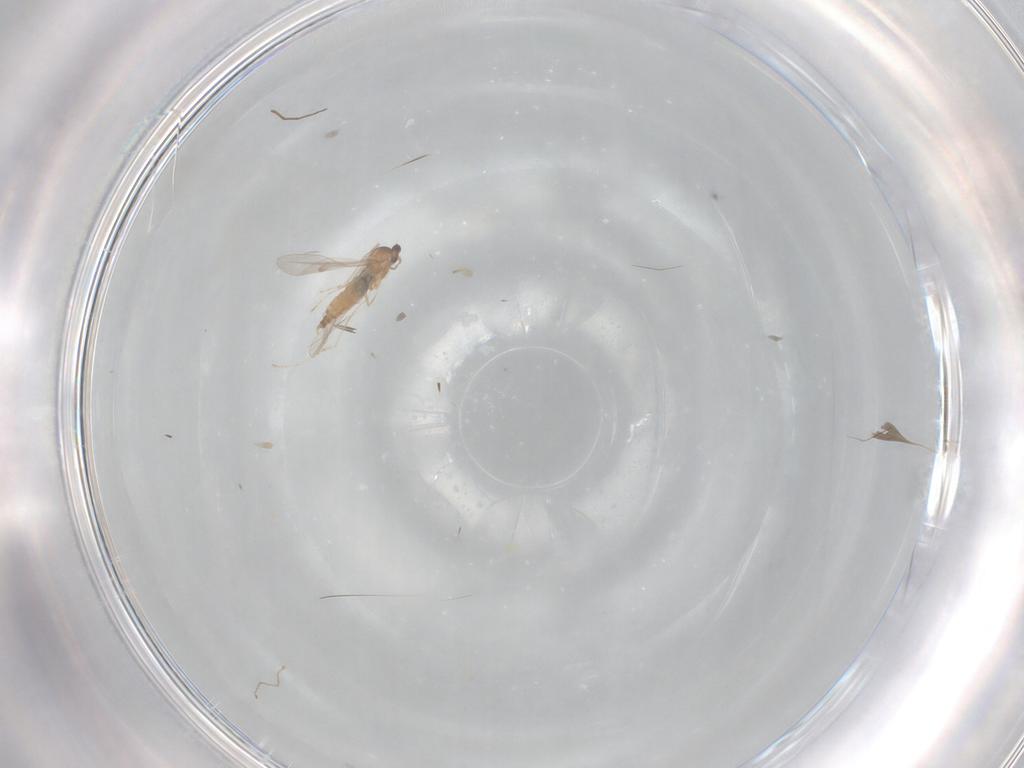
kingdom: Animalia
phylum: Arthropoda
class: Insecta
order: Diptera
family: Cecidomyiidae
